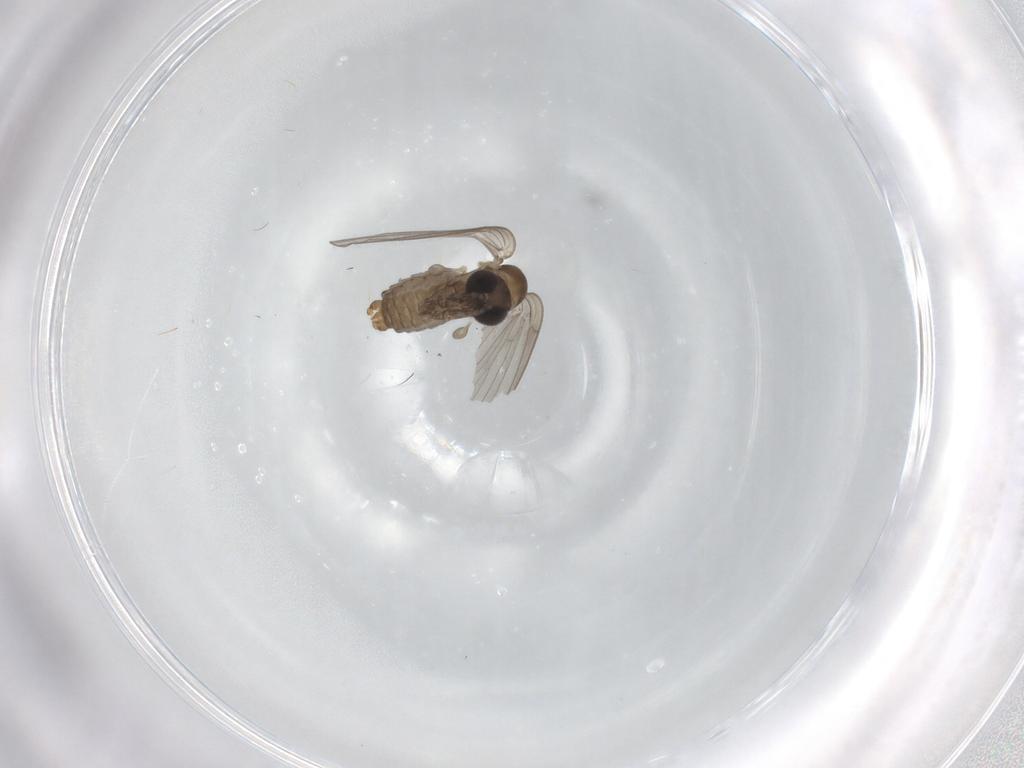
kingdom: Animalia
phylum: Arthropoda
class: Insecta
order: Diptera
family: Psychodidae
